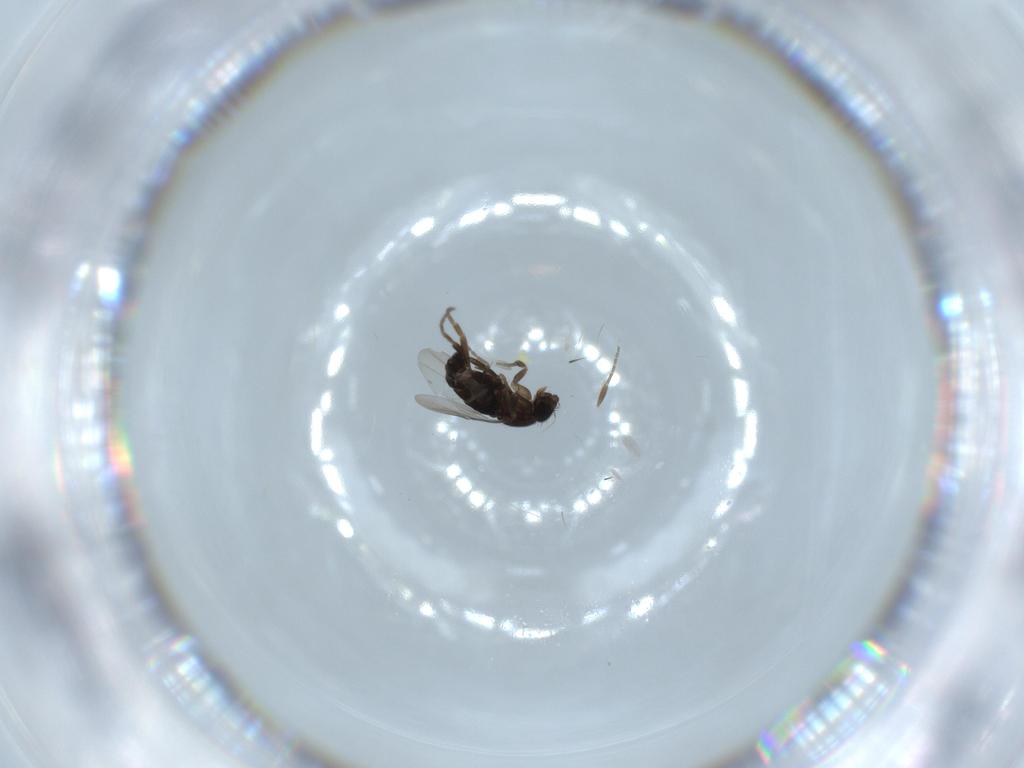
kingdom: Animalia
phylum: Arthropoda
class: Insecta
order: Diptera
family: Phoridae
